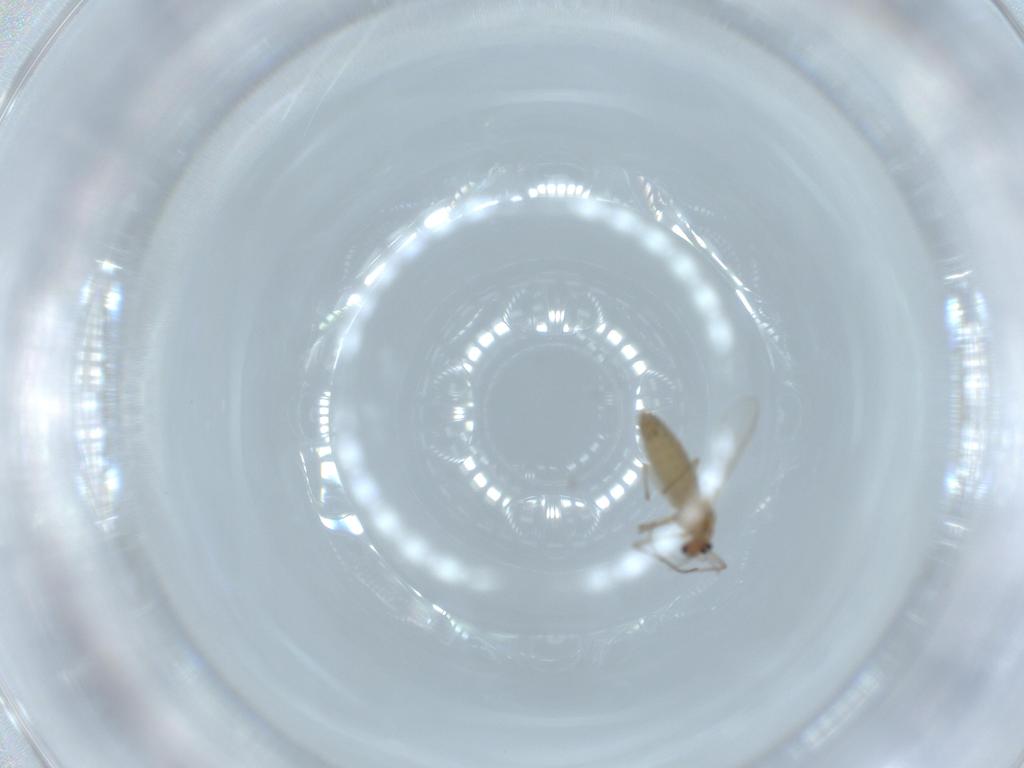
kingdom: Animalia
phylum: Arthropoda
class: Insecta
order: Diptera
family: Chironomidae
